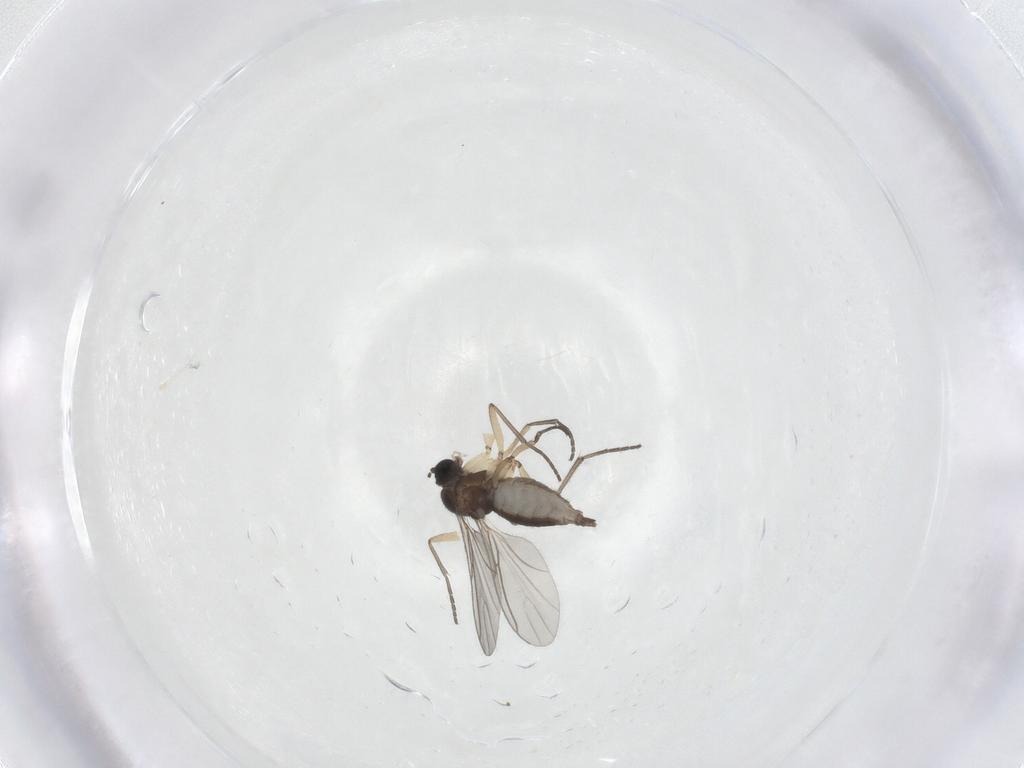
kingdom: Animalia
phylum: Arthropoda
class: Insecta
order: Diptera
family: Sciaridae
